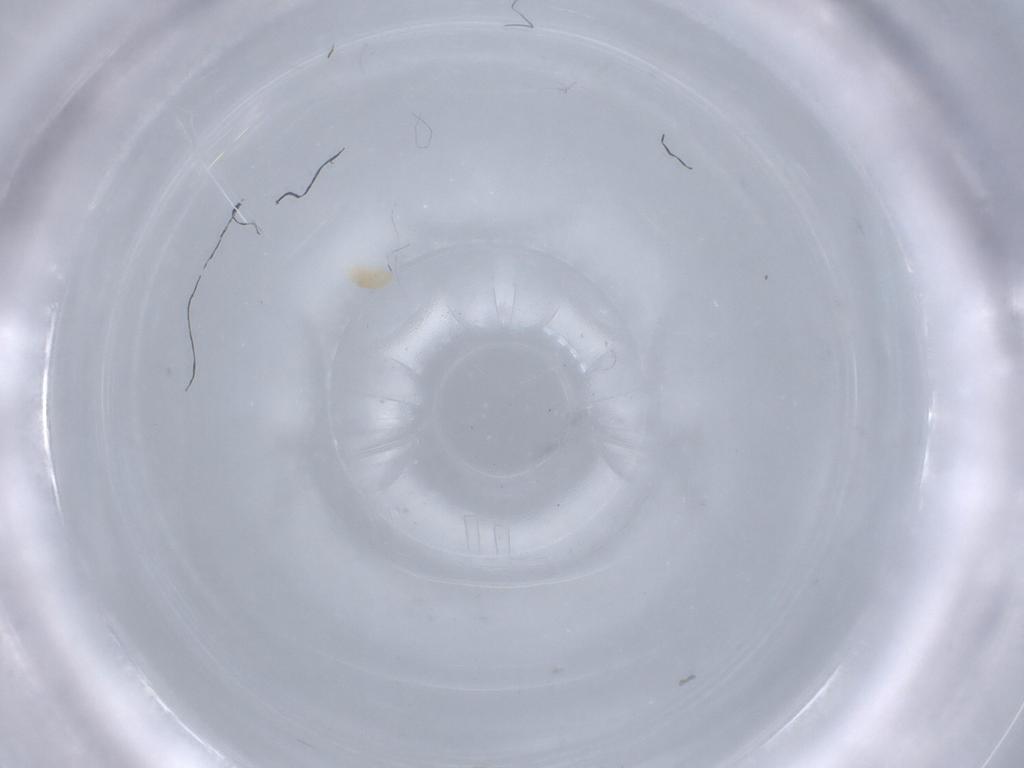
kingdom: Animalia
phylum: Arthropoda
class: Arachnida
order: Trombidiformes
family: Eupodidae
